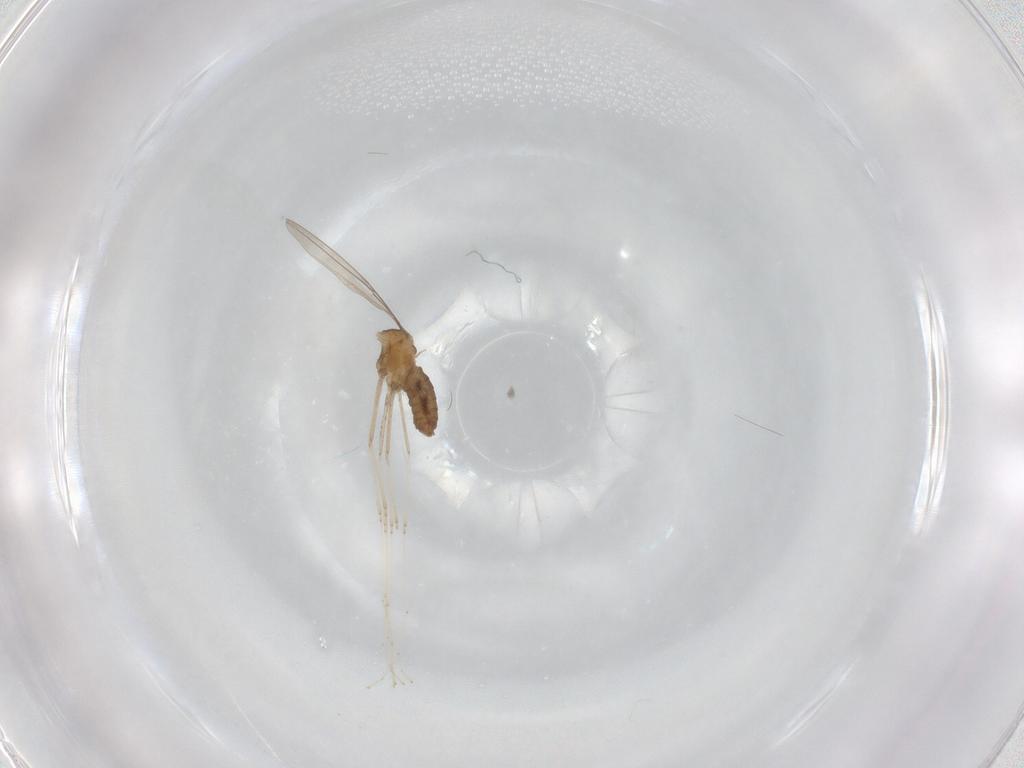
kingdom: Animalia
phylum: Arthropoda
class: Insecta
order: Diptera
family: Cecidomyiidae
